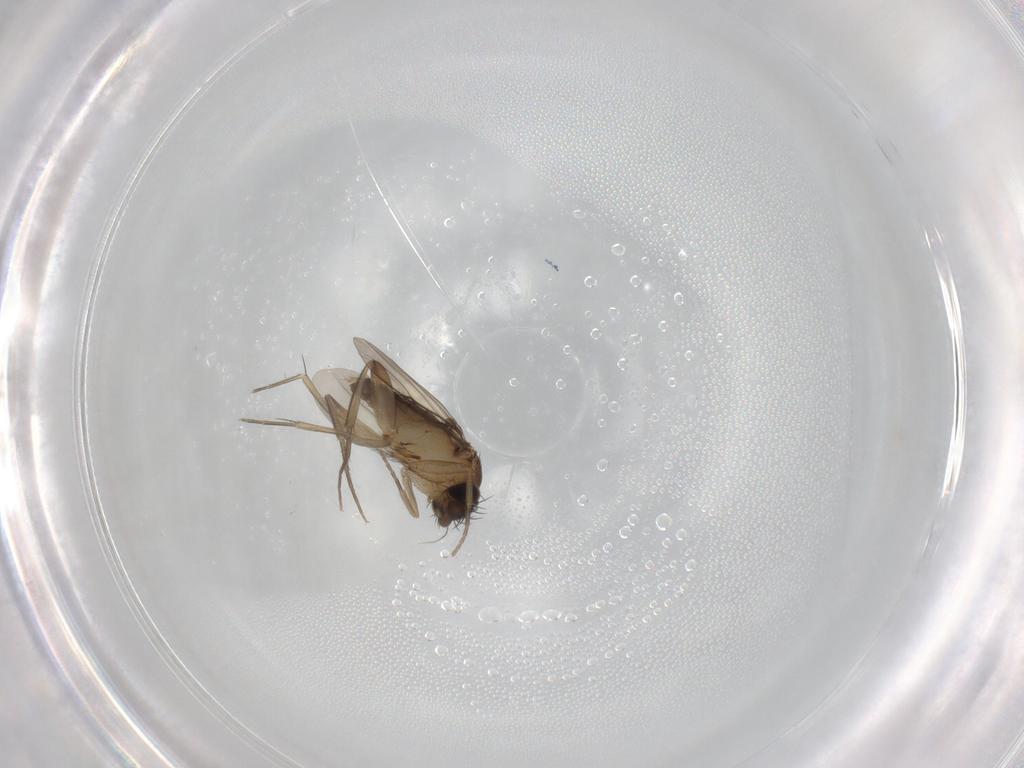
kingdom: Animalia
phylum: Arthropoda
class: Insecta
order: Diptera
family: Phoridae
